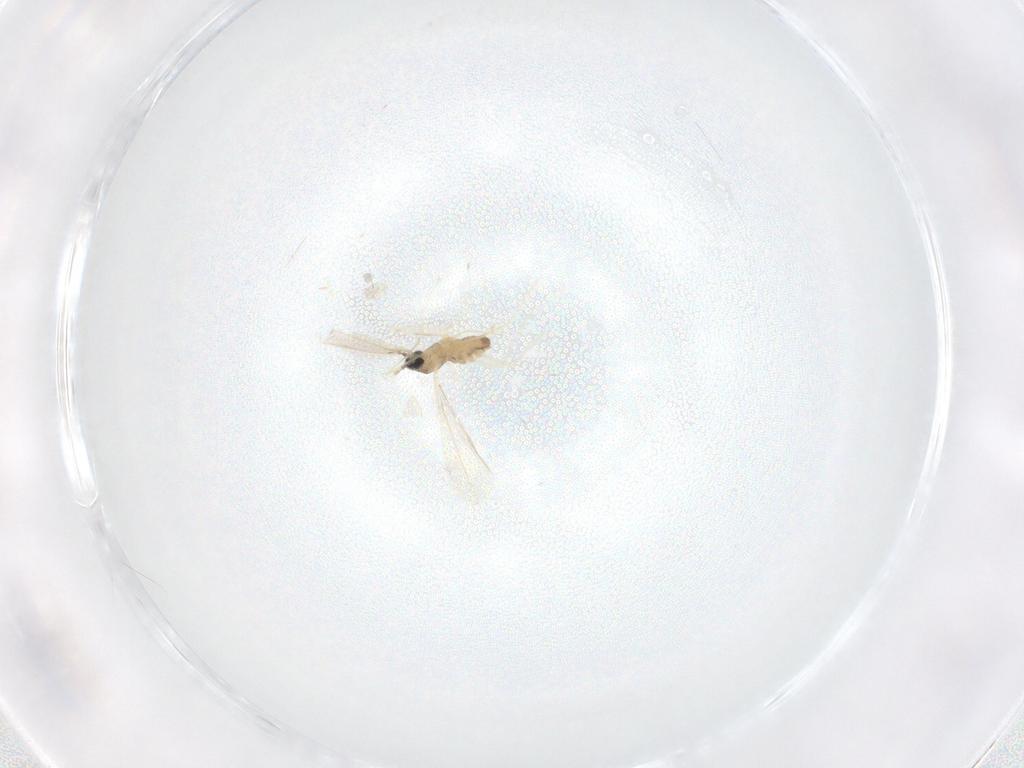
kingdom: Animalia
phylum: Arthropoda
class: Insecta
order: Diptera
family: Cecidomyiidae
